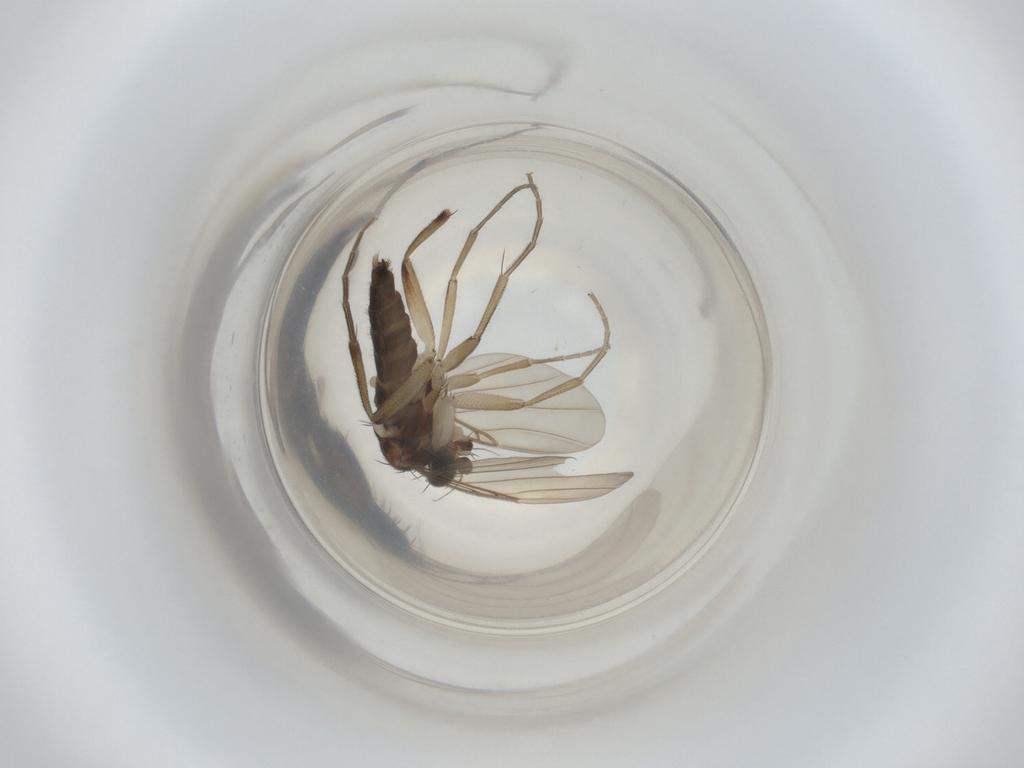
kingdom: Animalia
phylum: Arthropoda
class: Insecta
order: Diptera
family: Phoridae
